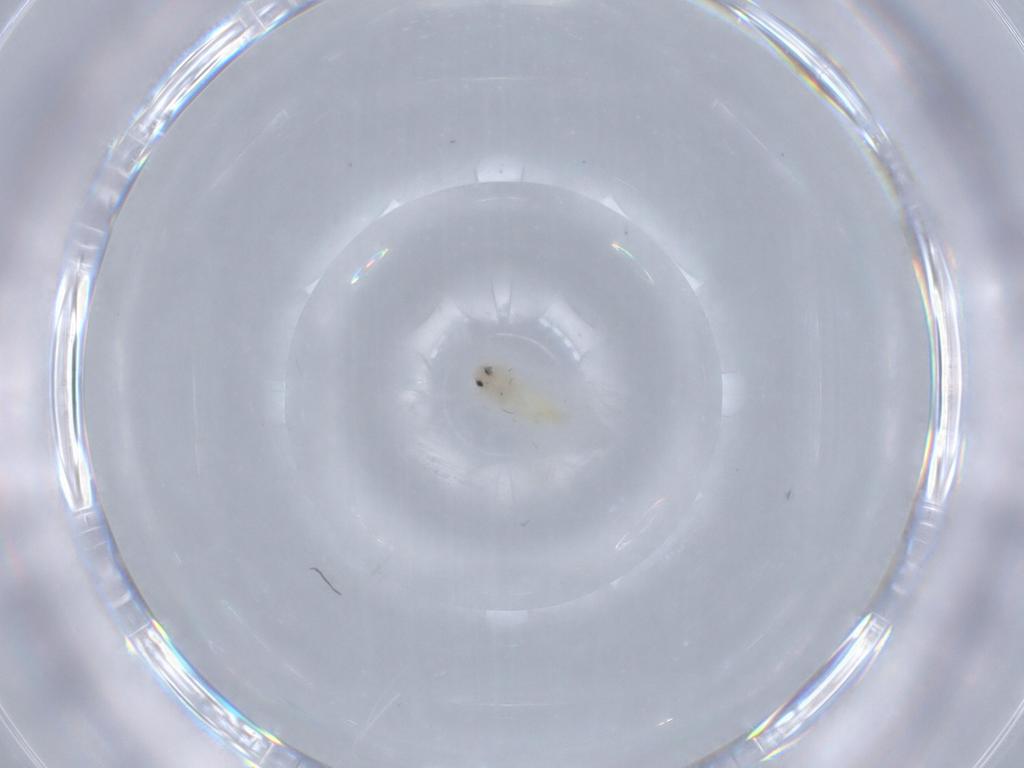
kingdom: Animalia
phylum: Arthropoda
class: Insecta
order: Hemiptera
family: Aleyrodidae
